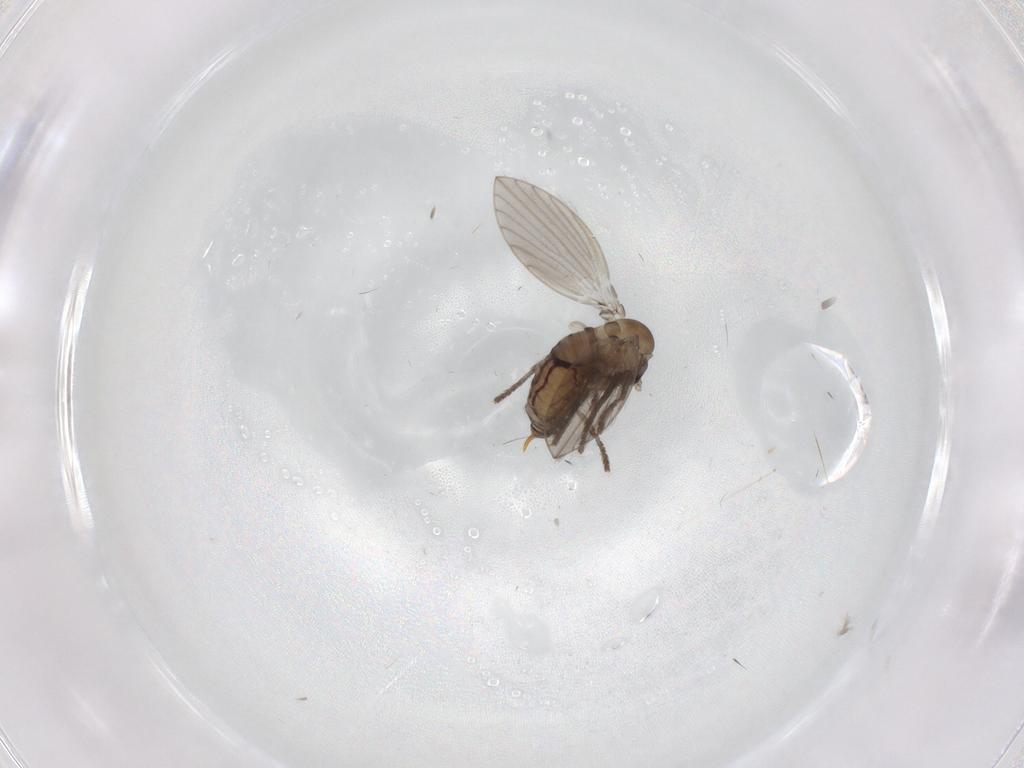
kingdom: Animalia
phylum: Arthropoda
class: Insecta
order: Diptera
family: Psychodidae
